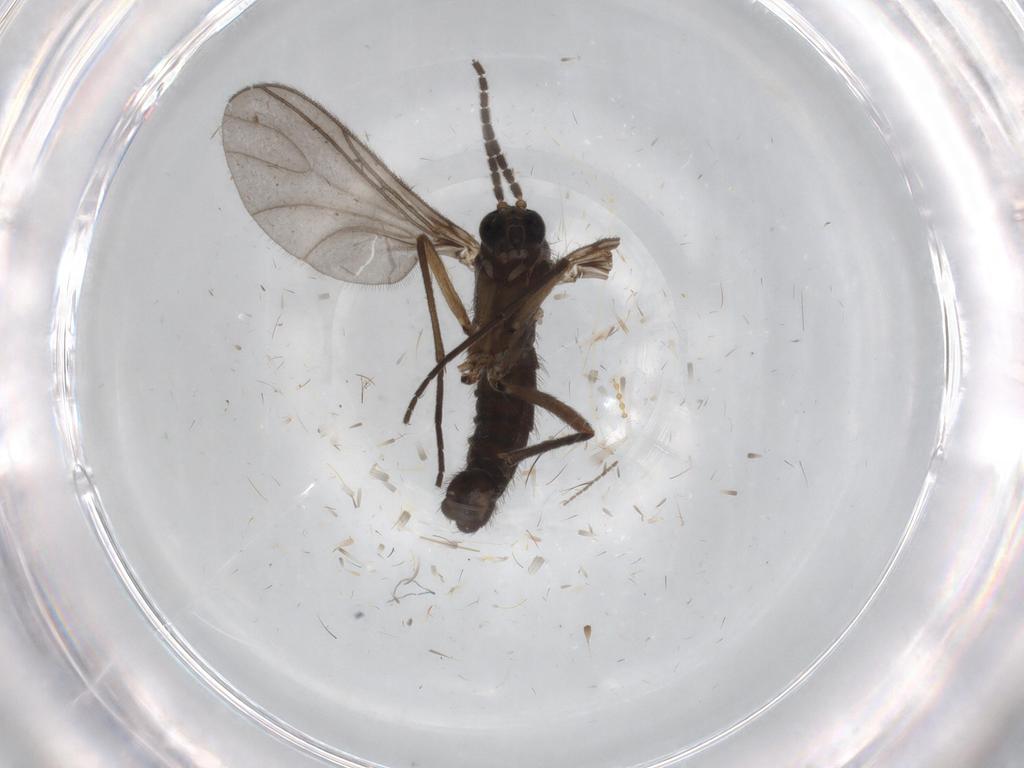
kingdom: Animalia
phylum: Arthropoda
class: Insecta
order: Diptera
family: Sciaridae
